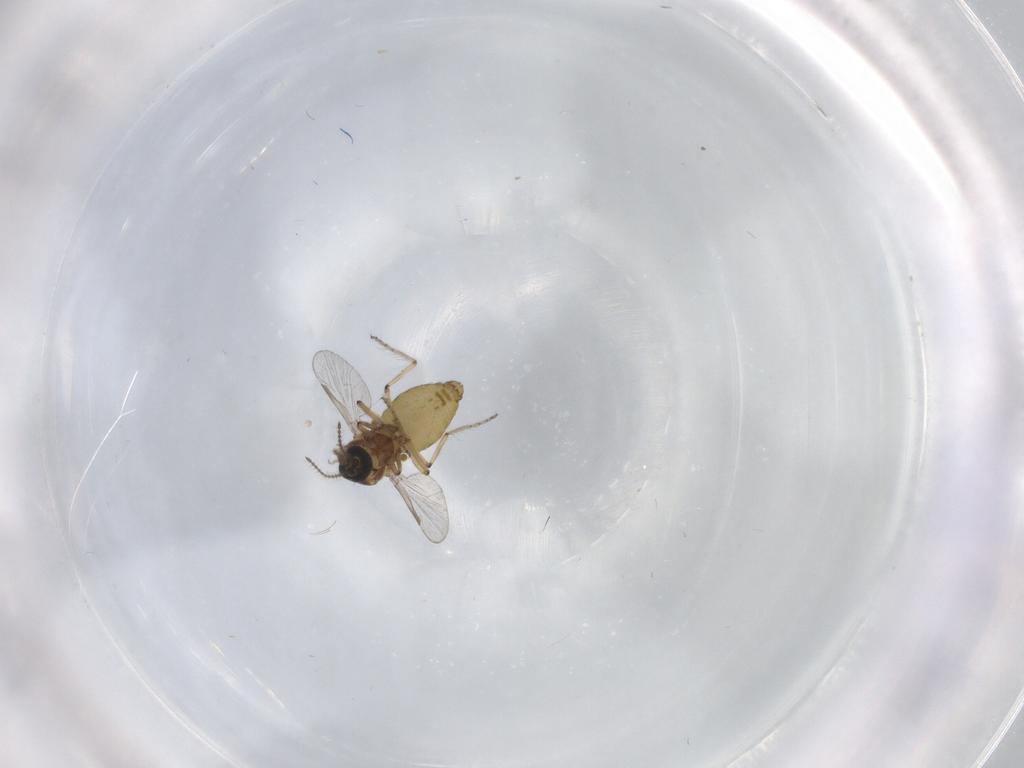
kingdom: Animalia
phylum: Arthropoda
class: Insecta
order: Diptera
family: Ceratopogonidae
